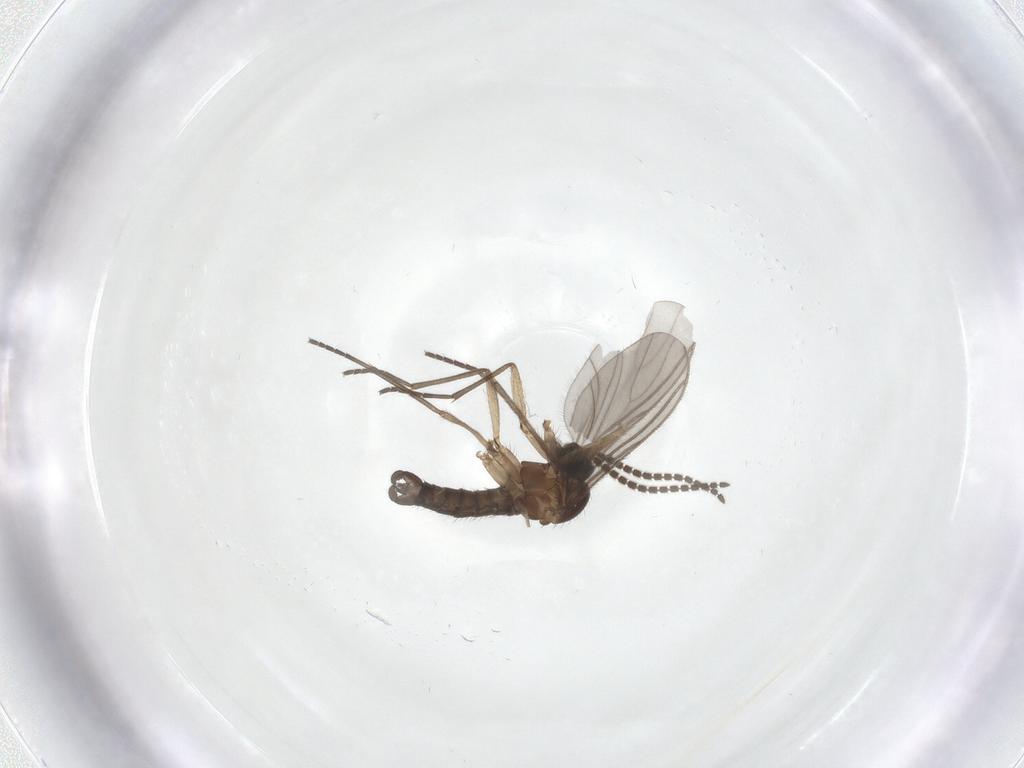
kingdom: Animalia
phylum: Arthropoda
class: Insecta
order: Diptera
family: Sciaridae
